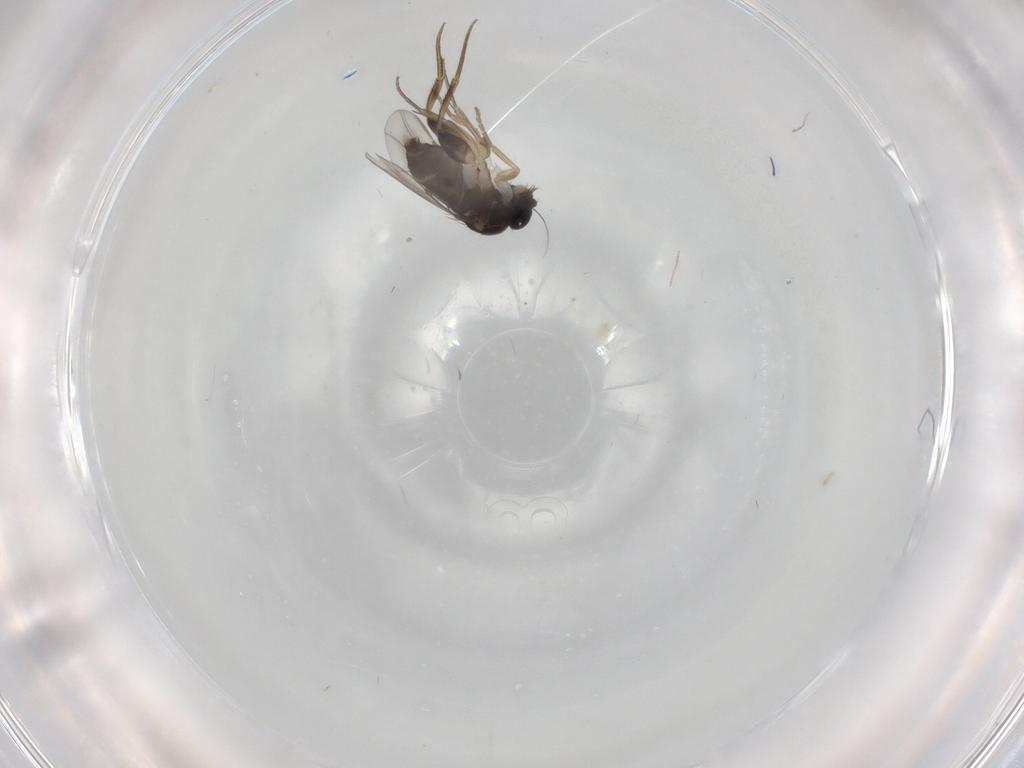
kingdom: Animalia
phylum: Arthropoda
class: Insecta
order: Diptera
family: Phoridae
